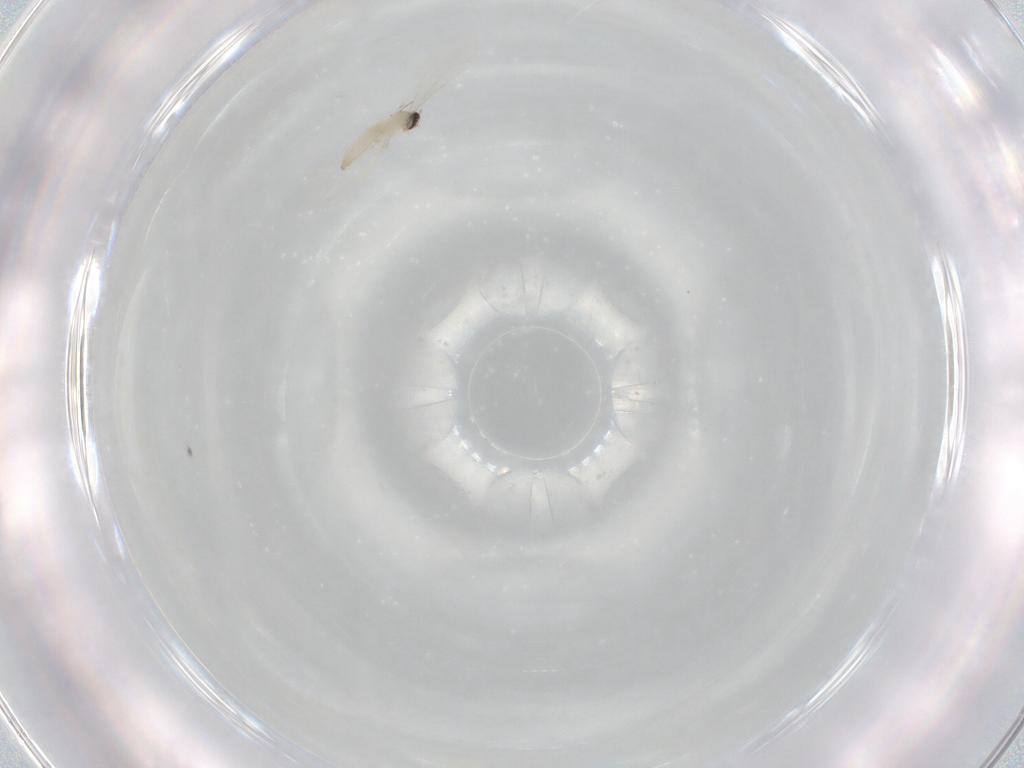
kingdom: Animalia
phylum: Arthropoda
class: Insecta
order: Diptera
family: Cecidomyiidae
